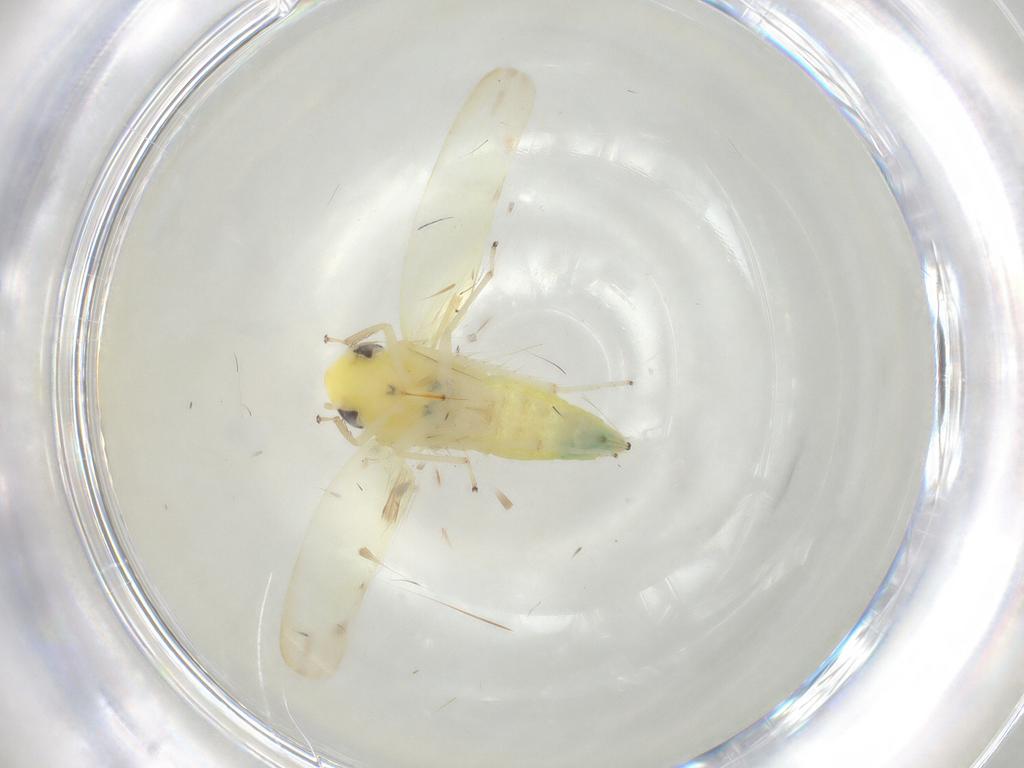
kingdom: Animalia
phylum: Arthropoda
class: Insecta
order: Hemiptera
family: Cicadellidae
